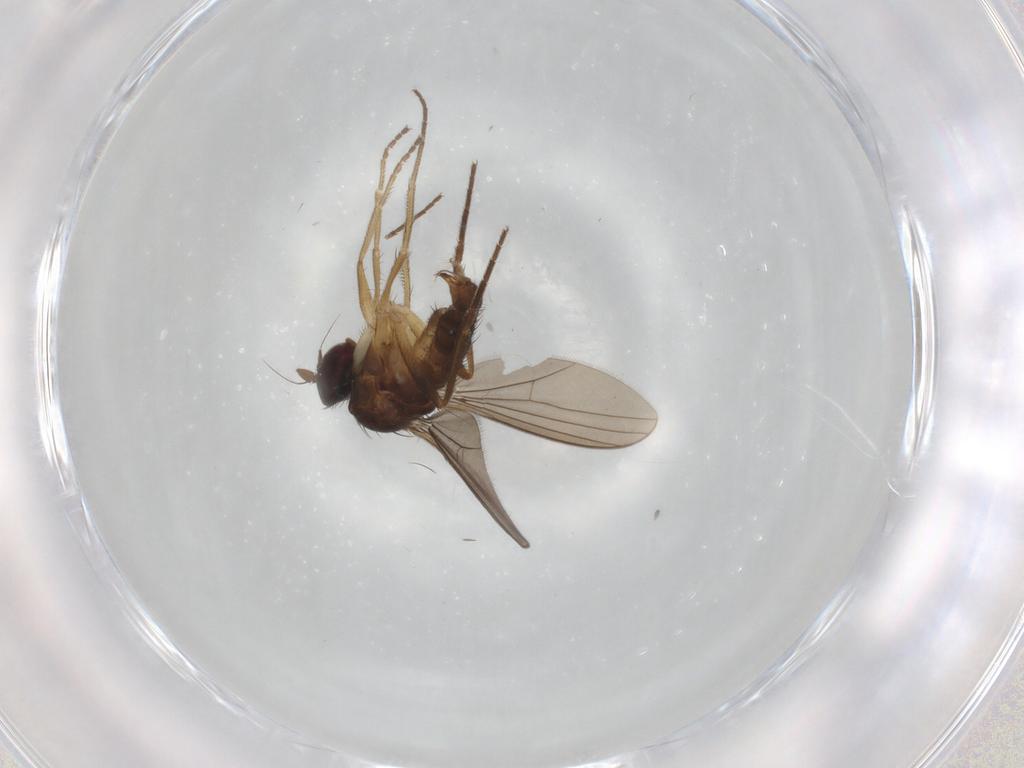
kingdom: Animalia
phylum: Arthropoda
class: Insecta
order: Diptera
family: Dolichopodidae
